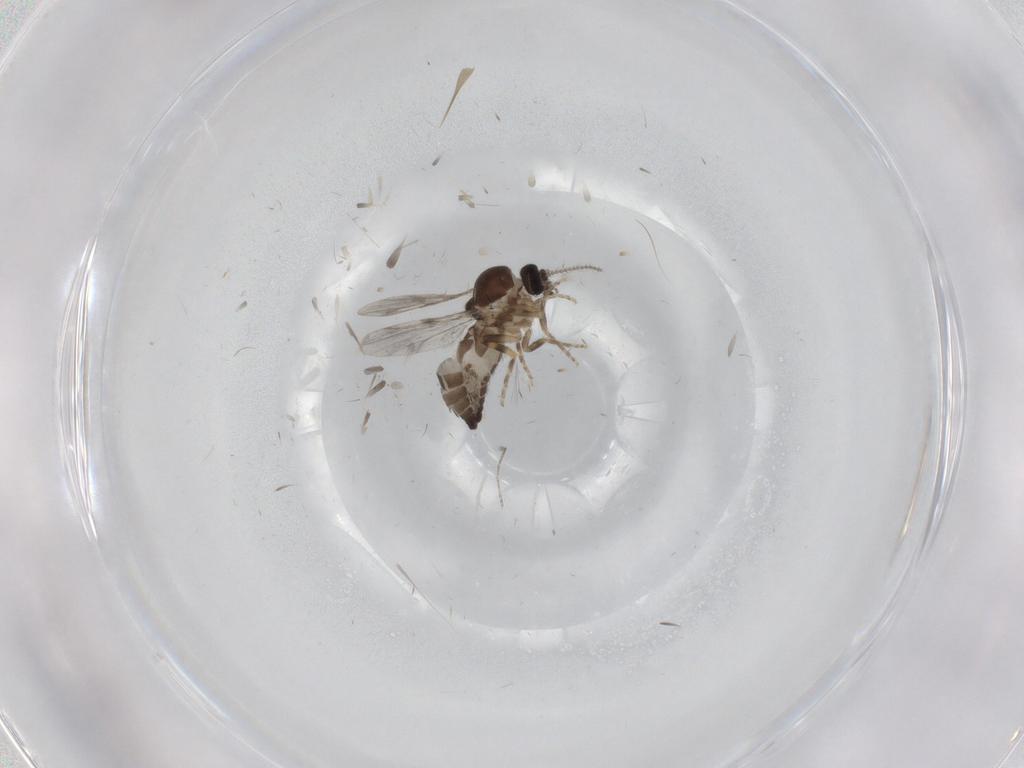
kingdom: Animalia
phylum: Arthropoda
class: Insecta
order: Diptera
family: Ceratopogonidae
